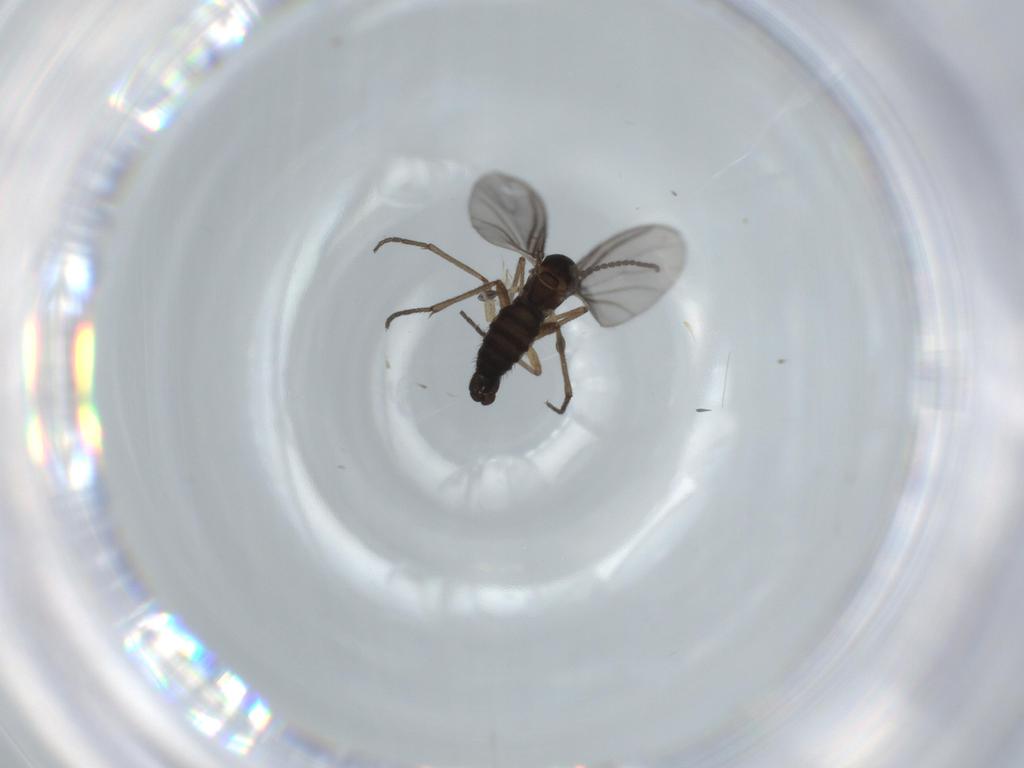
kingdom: Animalia
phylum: Arthropoda
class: Insecta
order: Diptera
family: Sciaridae
